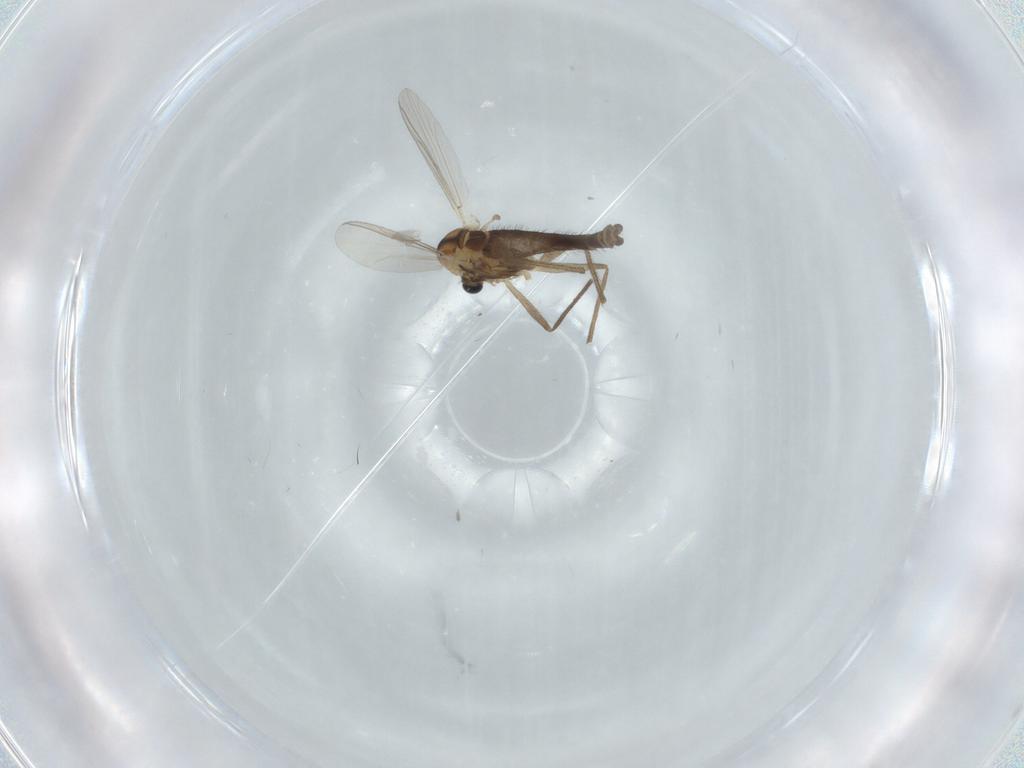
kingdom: Animalia
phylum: Arthropoda
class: Insecta
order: Diptera
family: Chironomidae
